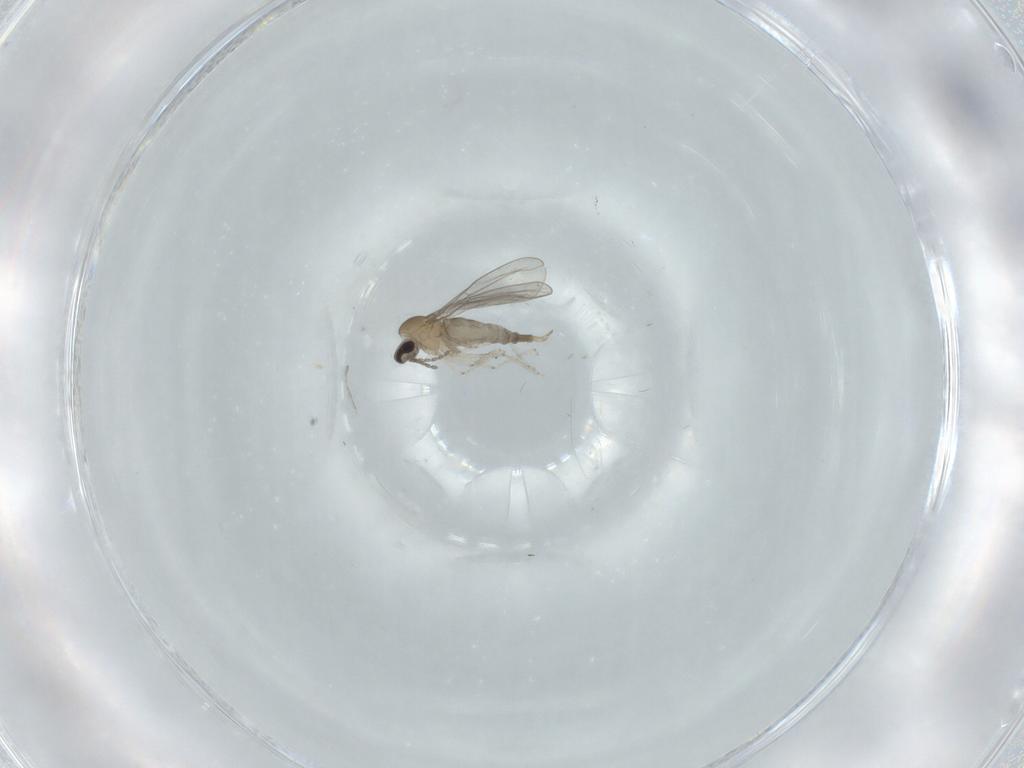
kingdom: Animalia
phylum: Arthropoda
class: Insecta
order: Diptera
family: Cecidomyiidae
